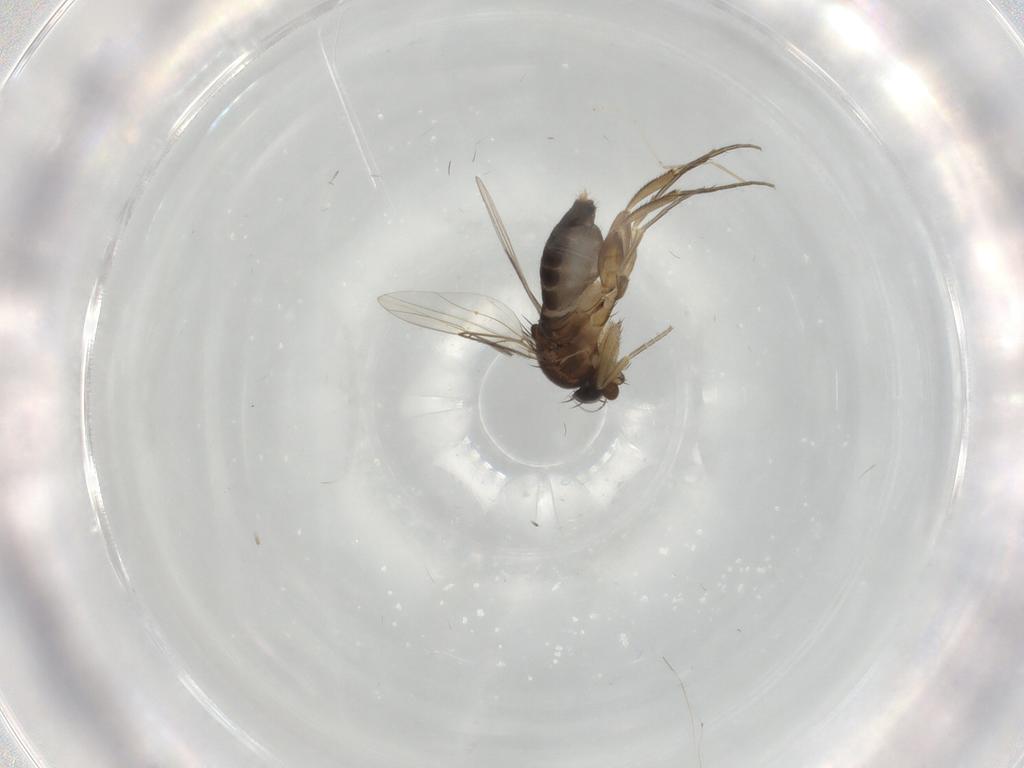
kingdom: Animalia
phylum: Arthropoda
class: Insecta
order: Diptera
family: Phoridae
